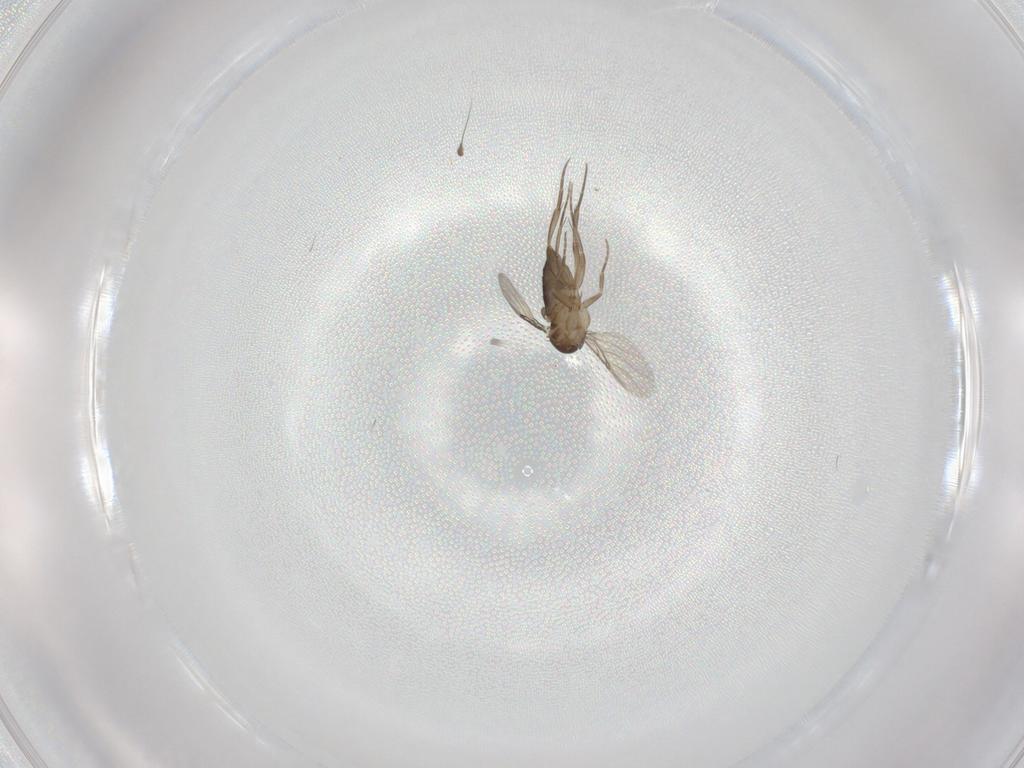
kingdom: Animalia
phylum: Arthropoda
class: Insecta
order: Diptera
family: Phoridae
